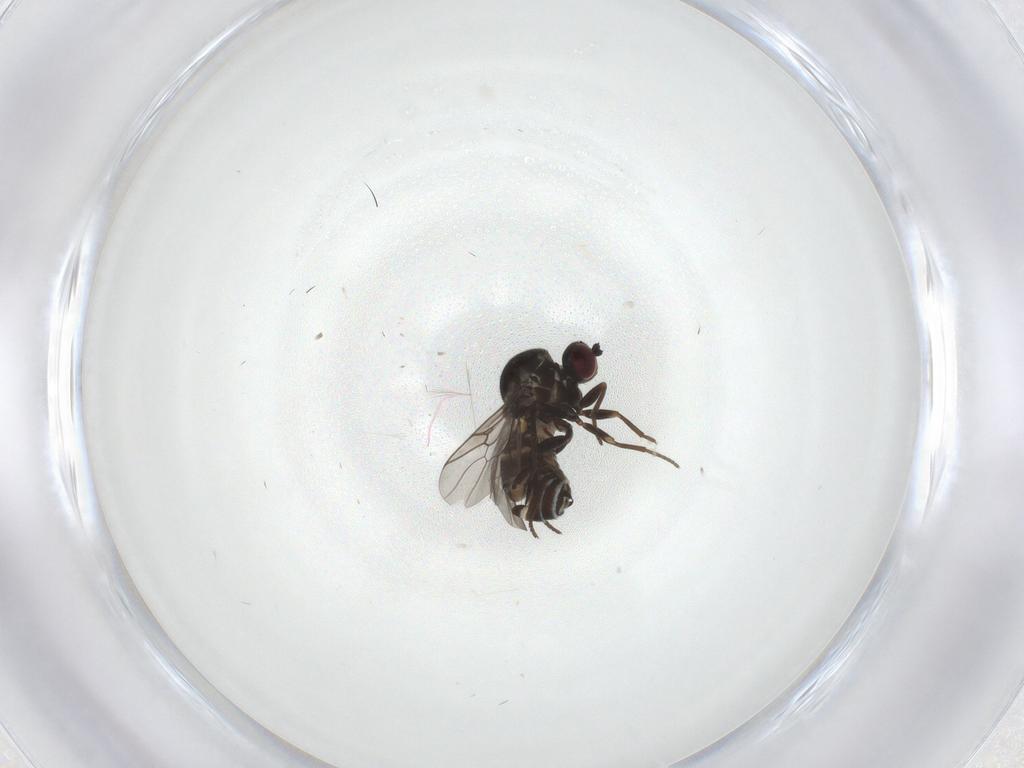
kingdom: Animalia
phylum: Arthropoda
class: Insecta
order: Diptera
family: Bombyliidae
